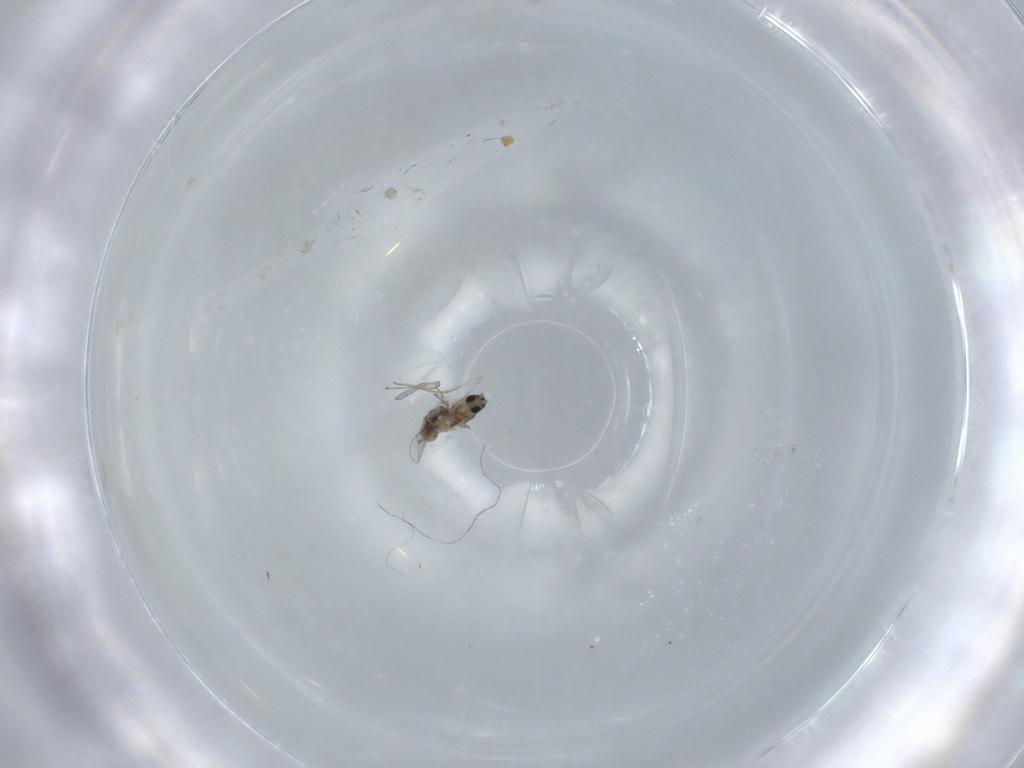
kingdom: Animalia
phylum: Arthropoda
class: Insecta
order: Diptera
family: Cecidomyiidae
